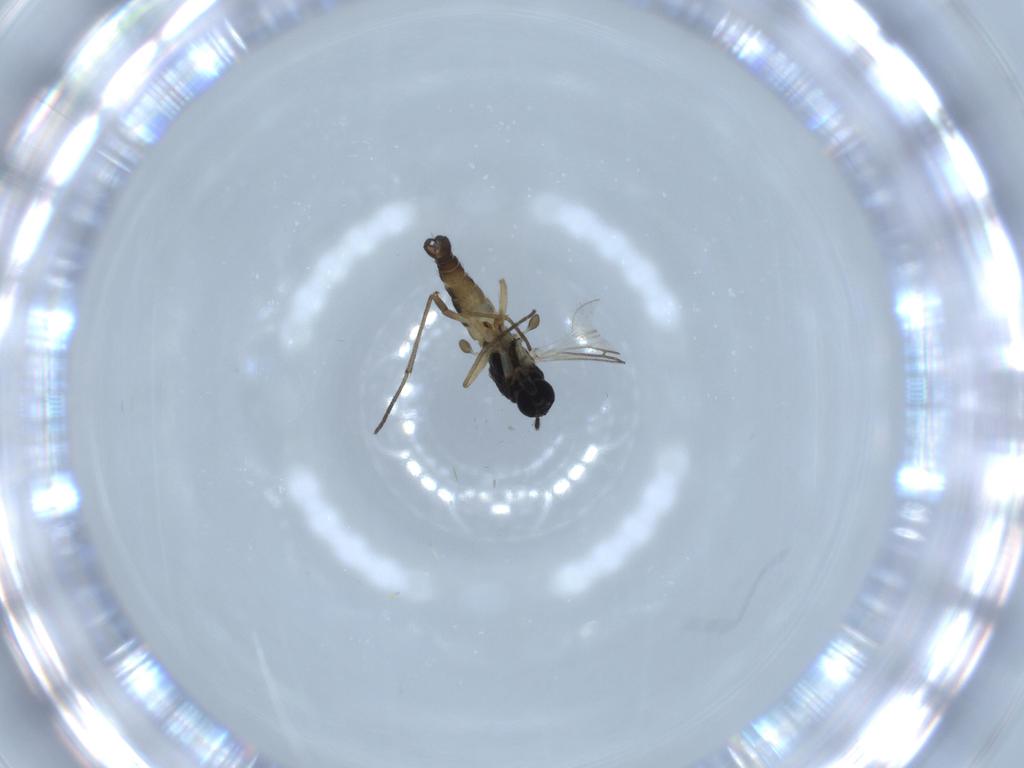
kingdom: Animalia
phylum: Arthropoda
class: Insecta
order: Diptera
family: Sciaridae
